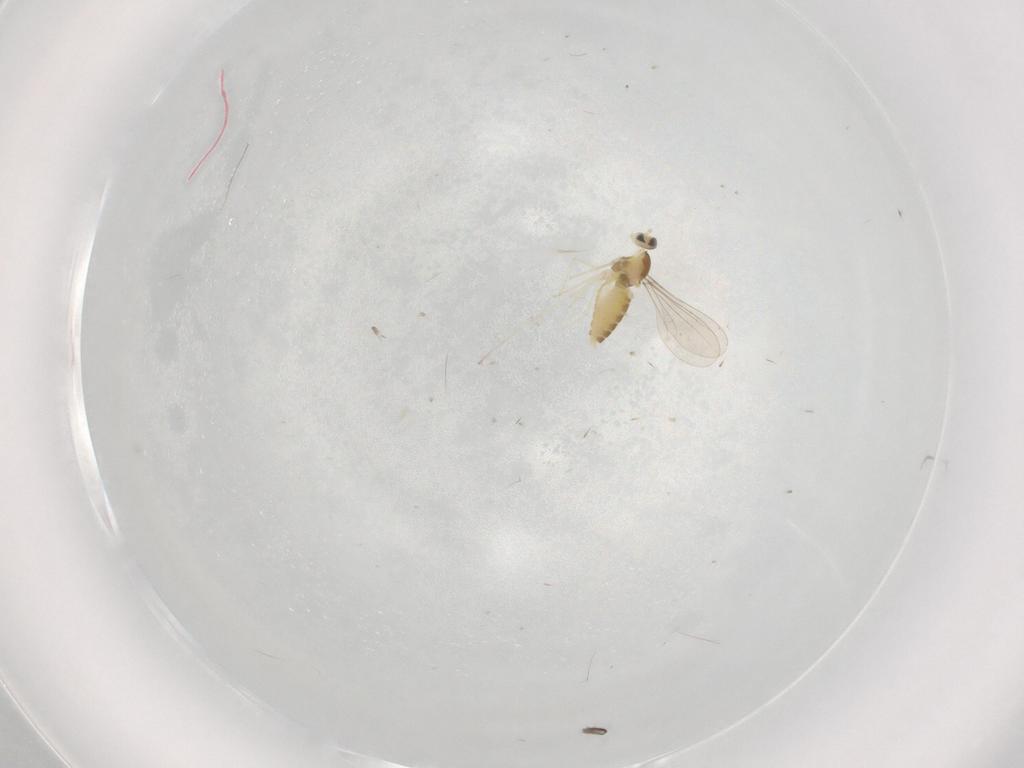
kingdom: Animalia
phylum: Arthropoda
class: Insecta
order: Diptera
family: Cecidomyiidae
